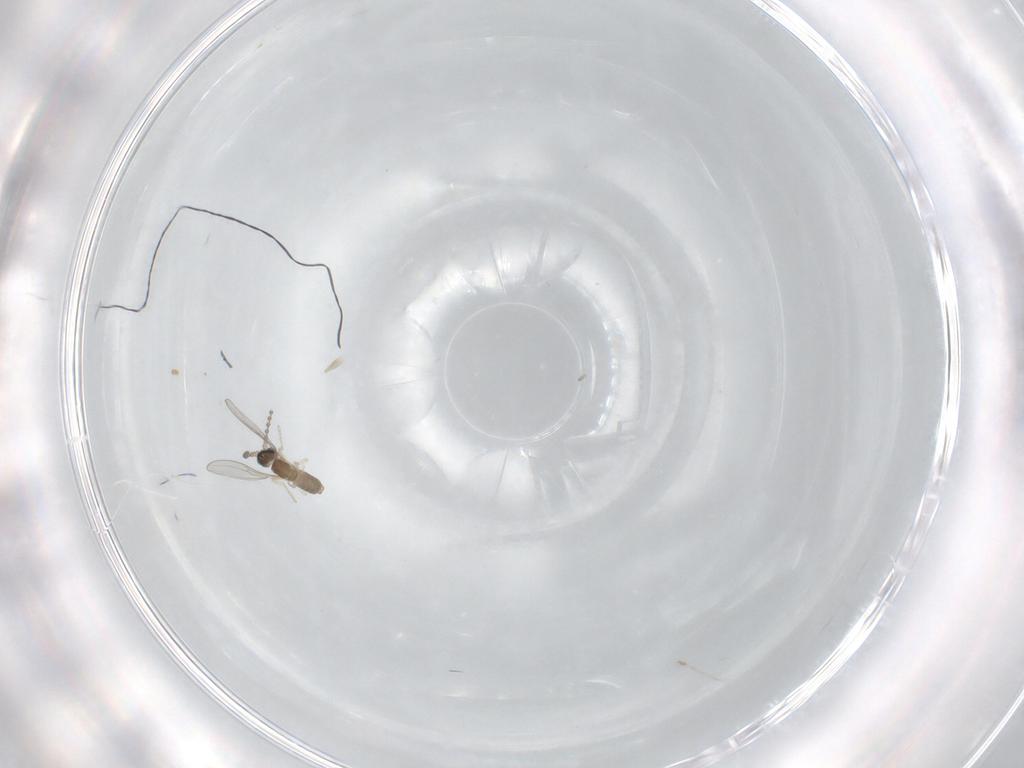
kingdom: Animalia
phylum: Arthropoda
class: Insecta
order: Diptera
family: Cecidomyiidae
